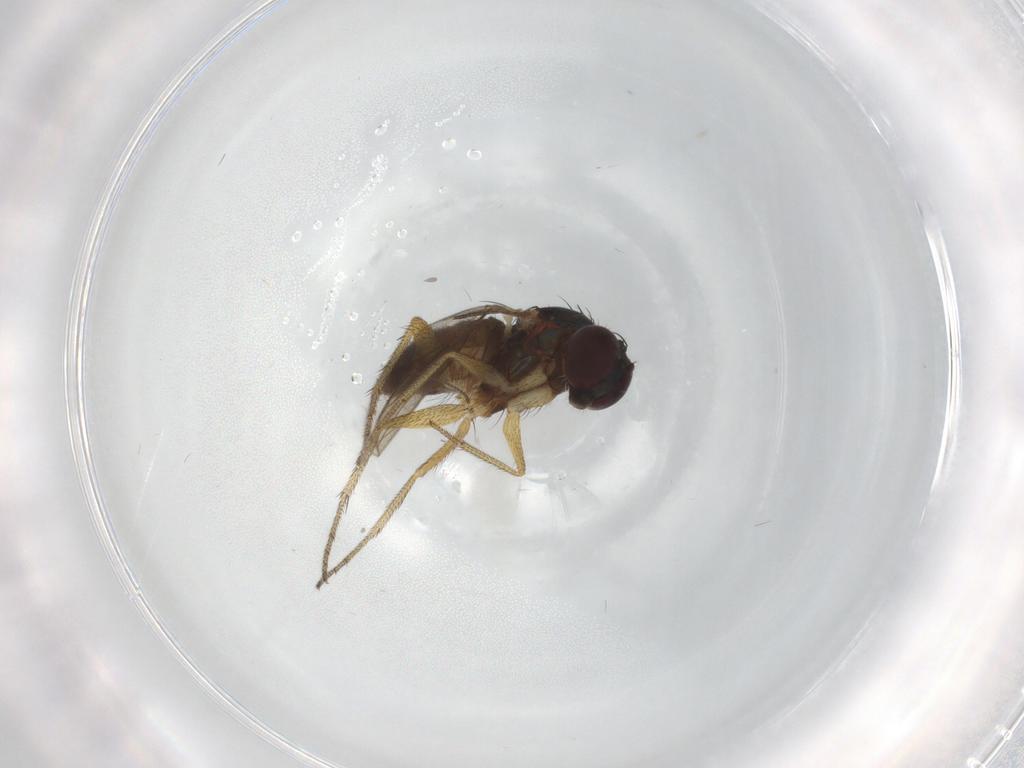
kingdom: Animalia
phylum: Arthropoda
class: Insecta
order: Diptera
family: Dolichopodidae
